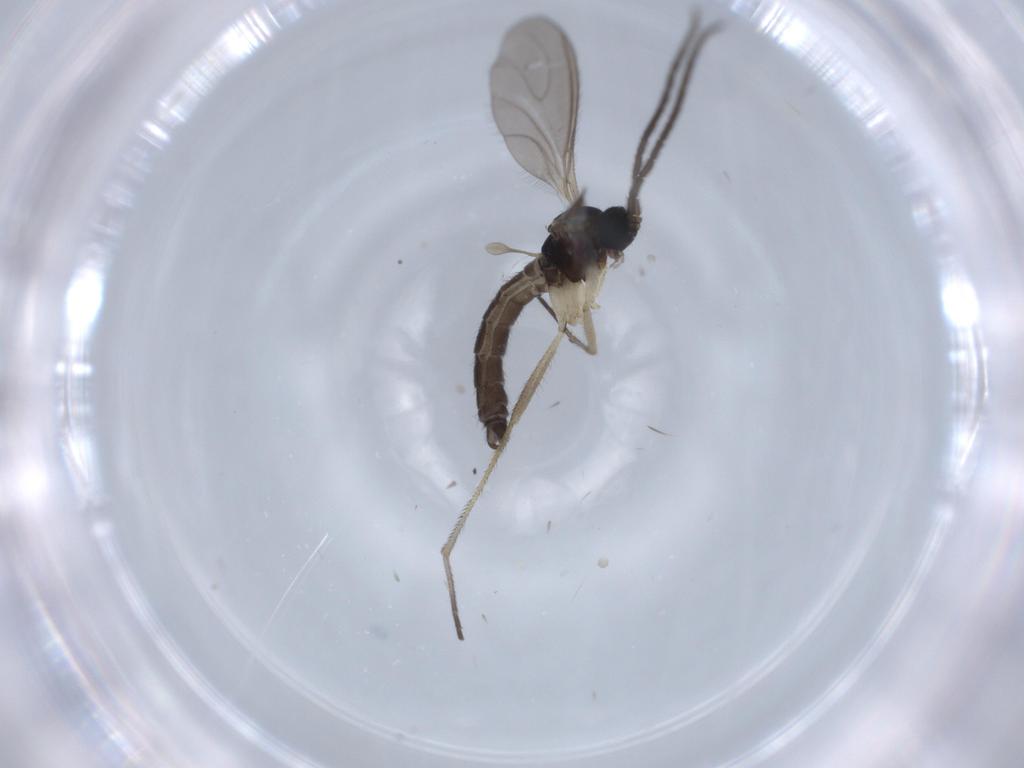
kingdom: Animalia
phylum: Arthropoda
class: Insecta
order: Diptera
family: Sciaridae
